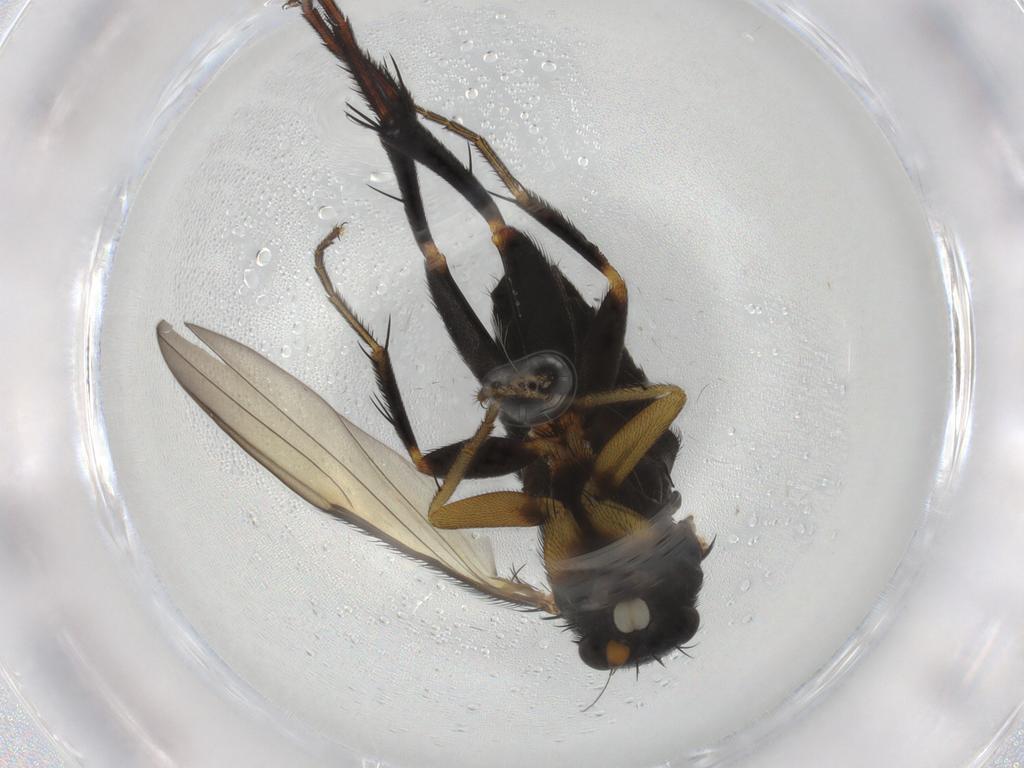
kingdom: Animalia
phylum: Arthropoda
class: Insecta
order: Diptera
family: Phoridae
